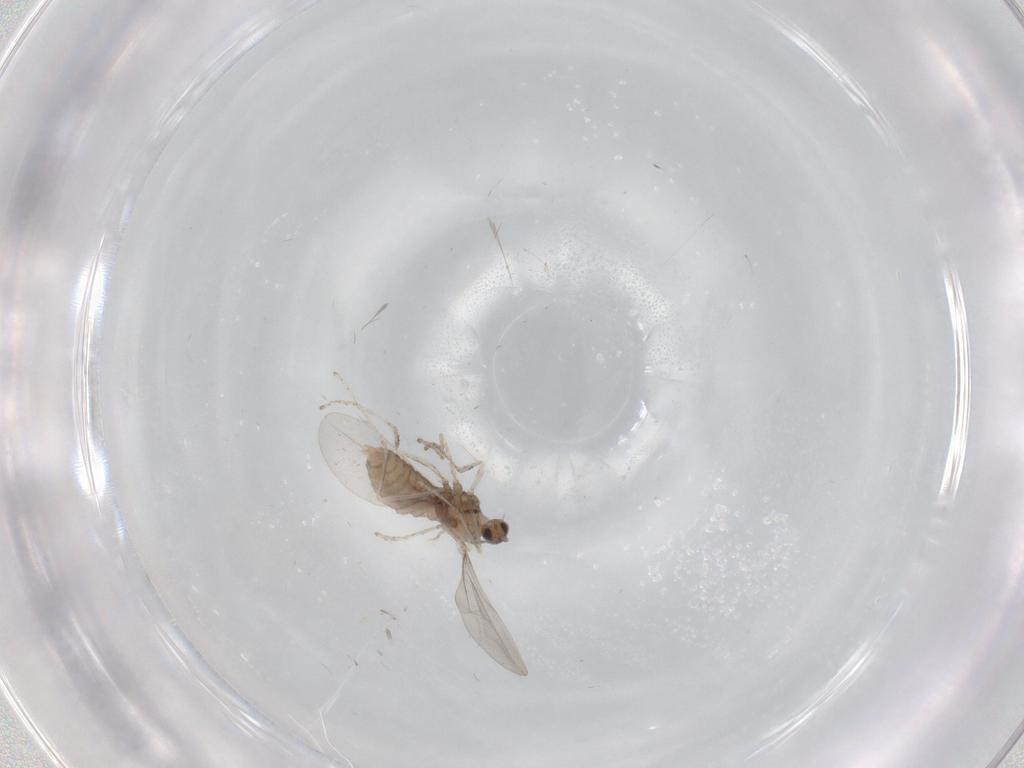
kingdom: Animalia
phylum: Arthropoda
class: Insecta
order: Diptera
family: Cecidomyiidae
